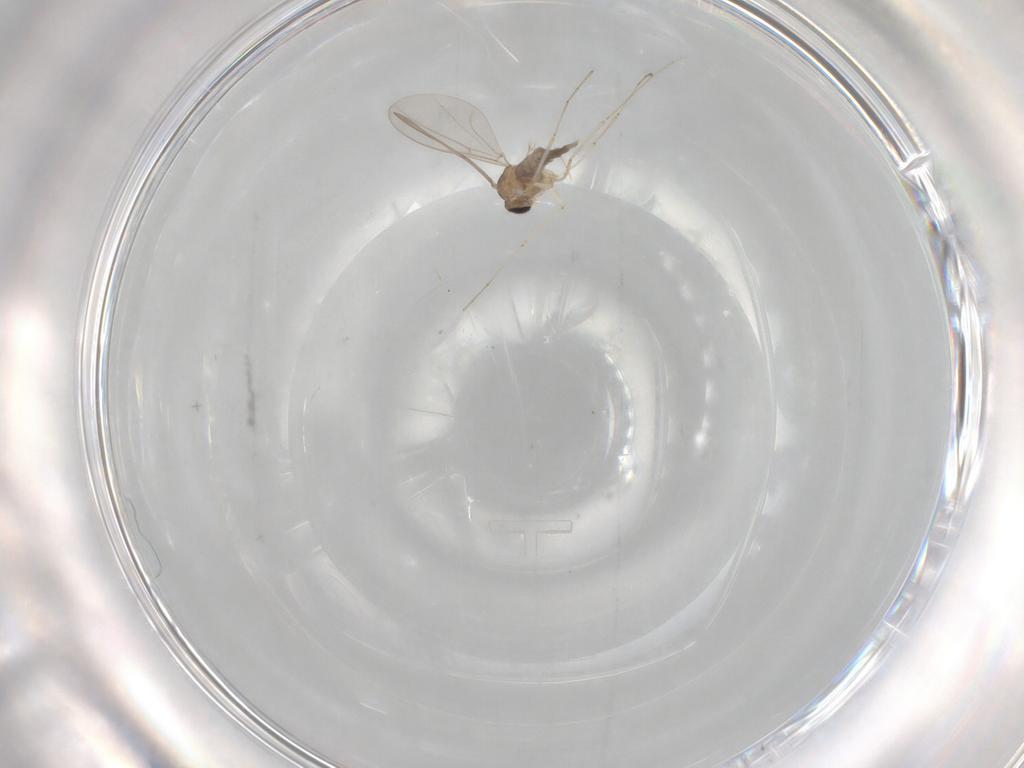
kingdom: Animalia
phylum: Arthropoda
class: Insecta
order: Diptera
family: Cecidomyiidae
